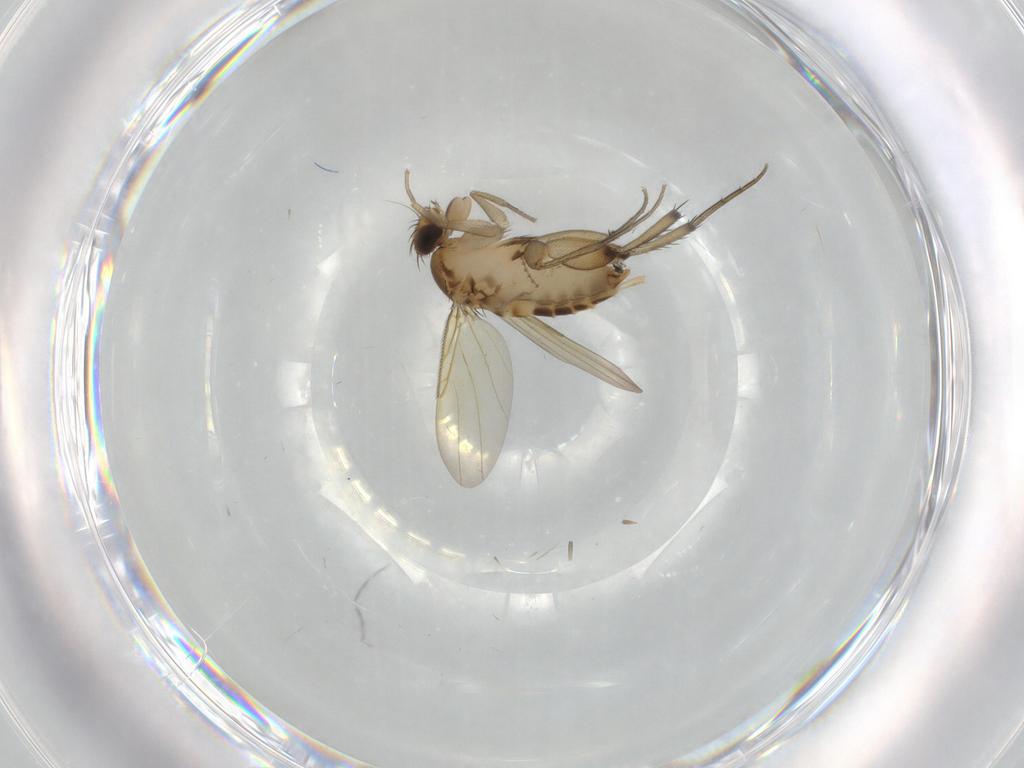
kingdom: Animalia
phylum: Arthropoda
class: Insecta
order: Diptera
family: Phoridae
